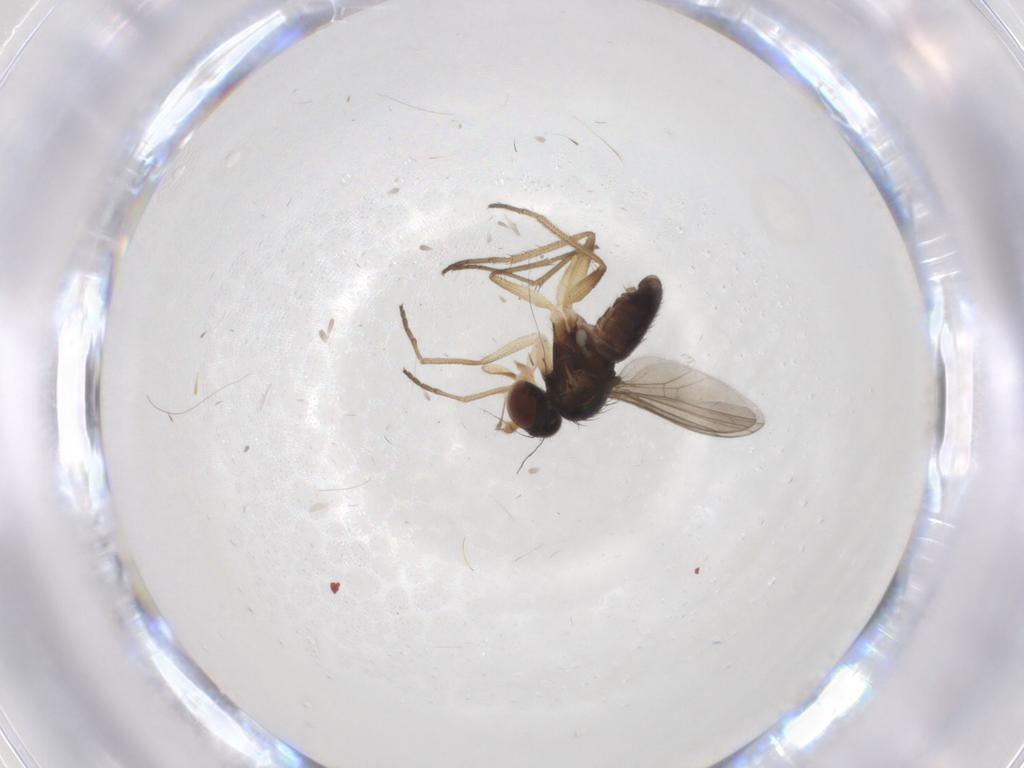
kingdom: Animalia
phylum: Arthropoda
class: Insecta
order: Diptera
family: Dolichopodidae
